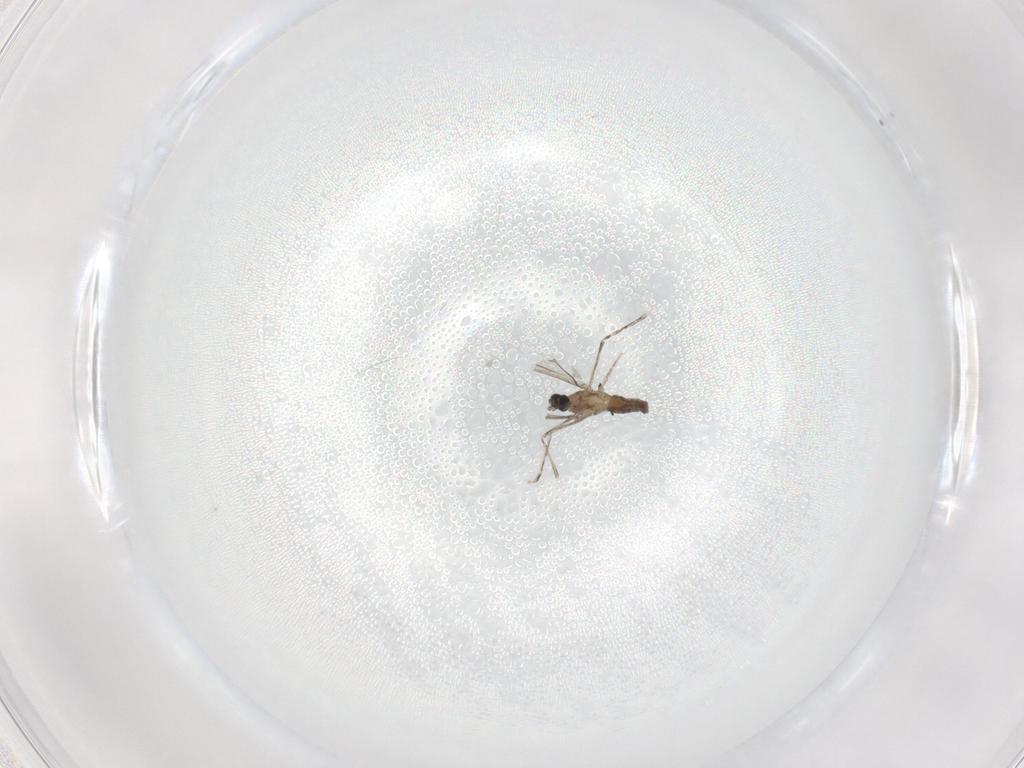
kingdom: Animalia
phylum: Arthropoda
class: Insecta
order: Diptera
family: Cecidomyiidae
